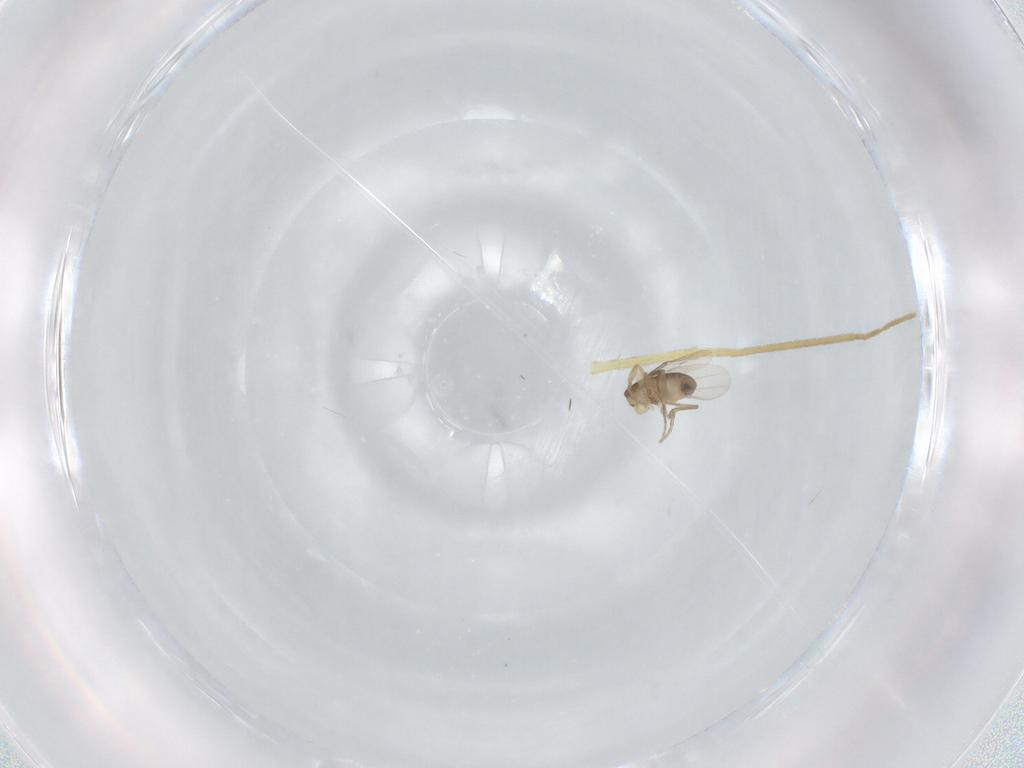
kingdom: Animalia
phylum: Arthropoda
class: Insecta
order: Diptera
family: Phoridae
